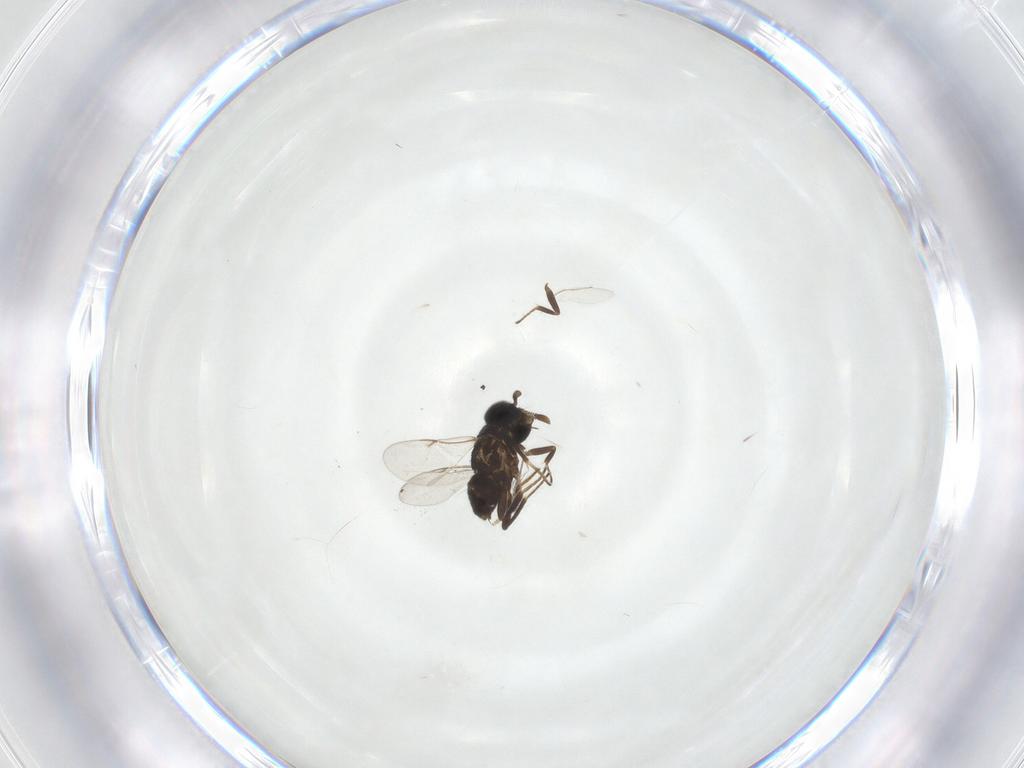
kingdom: Animalia
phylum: Arthropoda
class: Insecta
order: Hymenoptera
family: Encyrtidae
